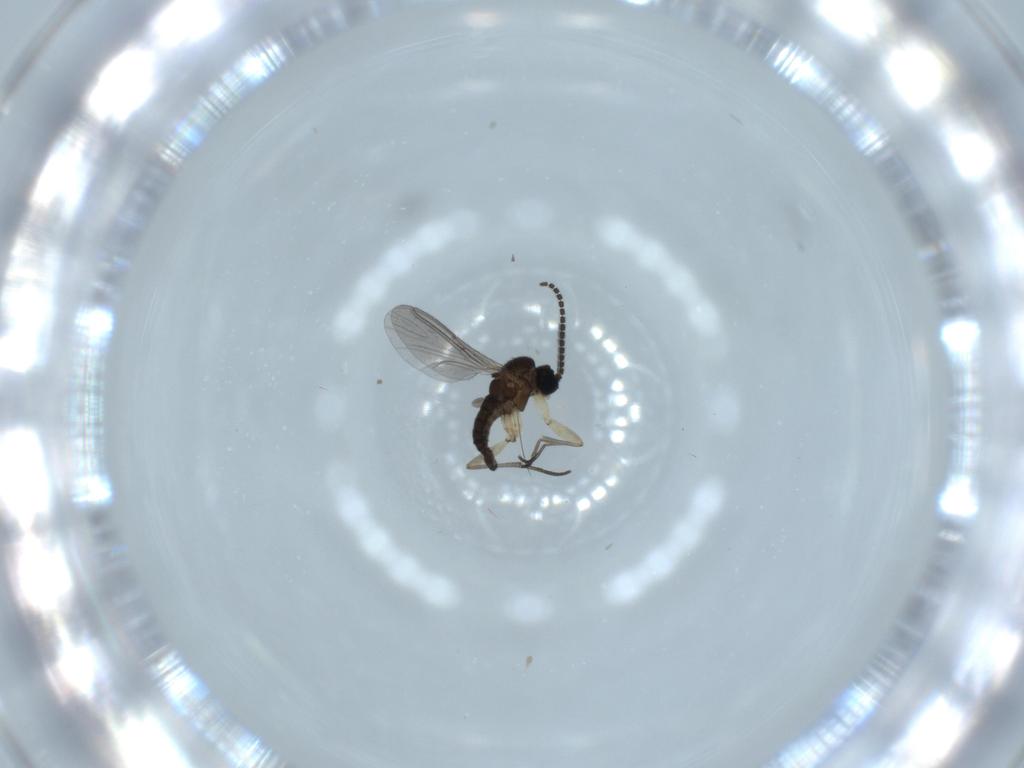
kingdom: Animalia
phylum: Arthropoda
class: Insecta
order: Diptera
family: Sciaridae
